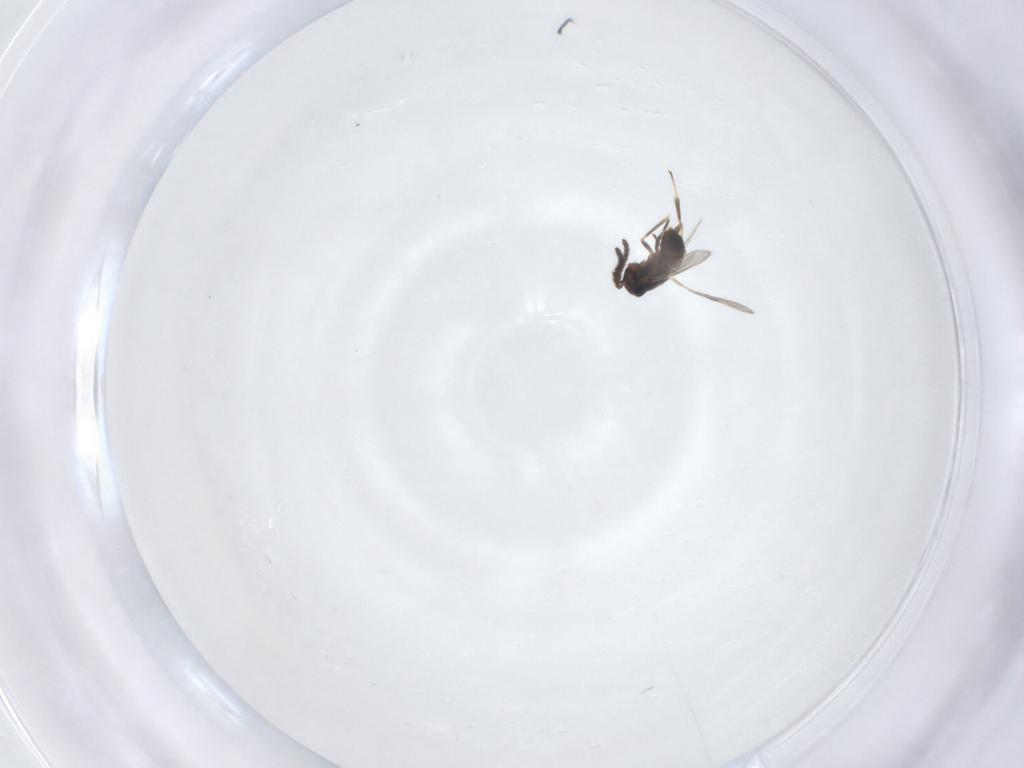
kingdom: Animalia
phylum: Arthropoda
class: Insecta
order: Hymenoptera
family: Encyrtidae
